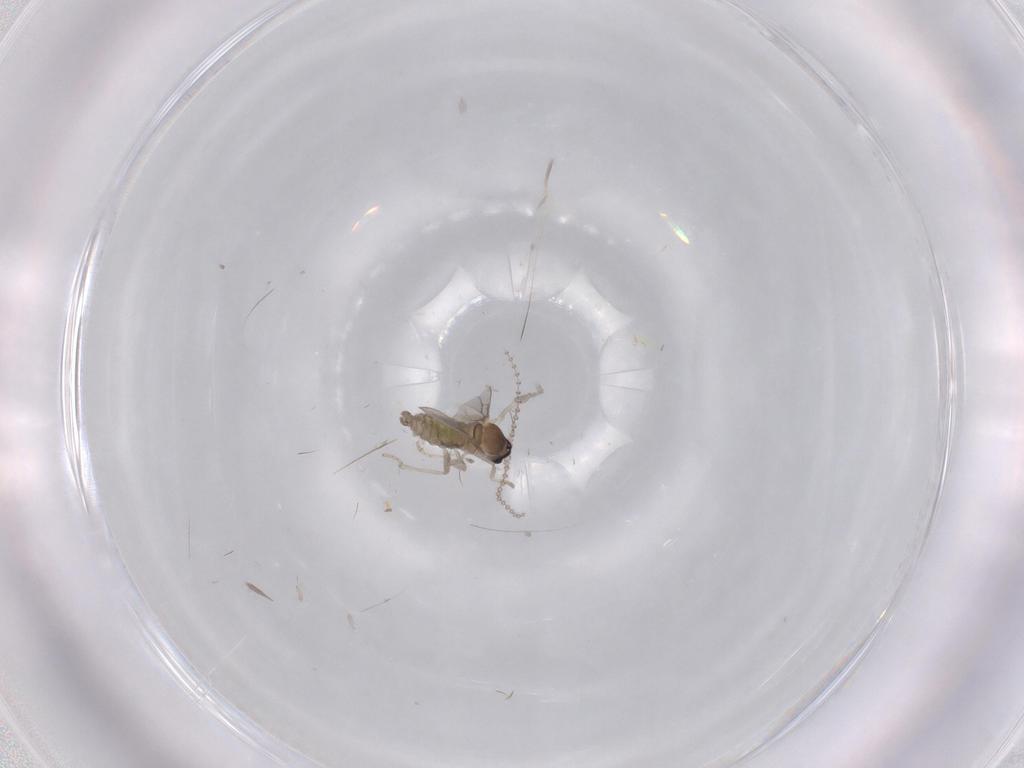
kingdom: Animalia
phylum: Arthropoda
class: Insecta
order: Diptera
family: Cecidomyiidae
